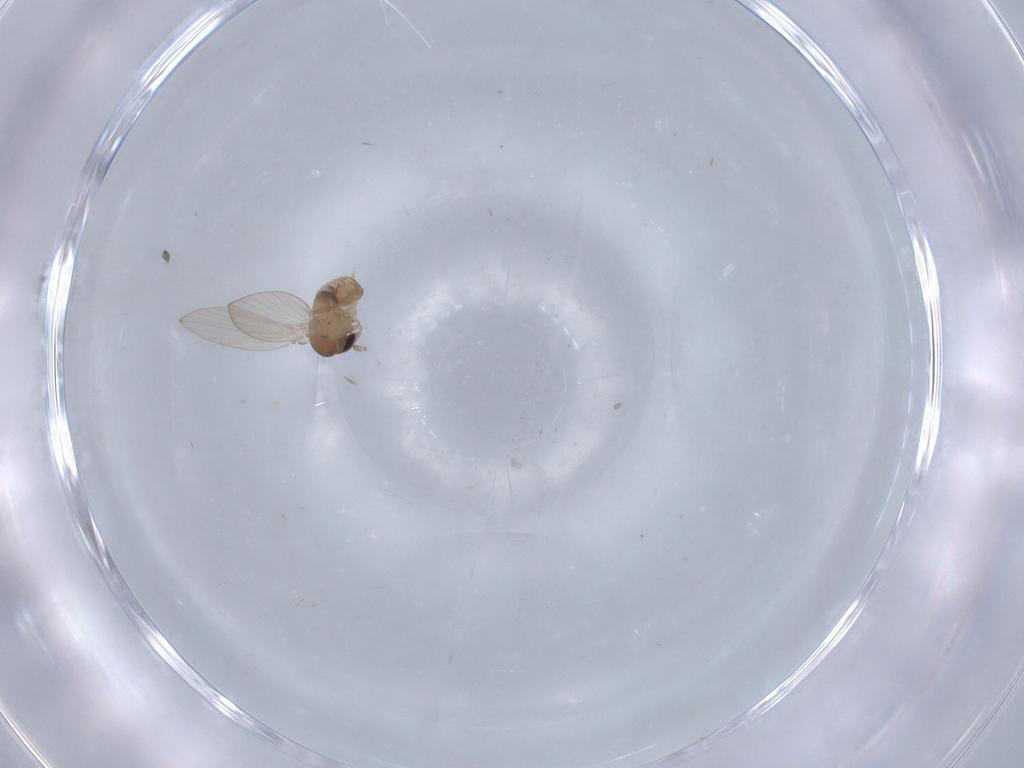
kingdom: Animalia
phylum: Arthropoda
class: Insecta
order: Diptera
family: Psychodidae
